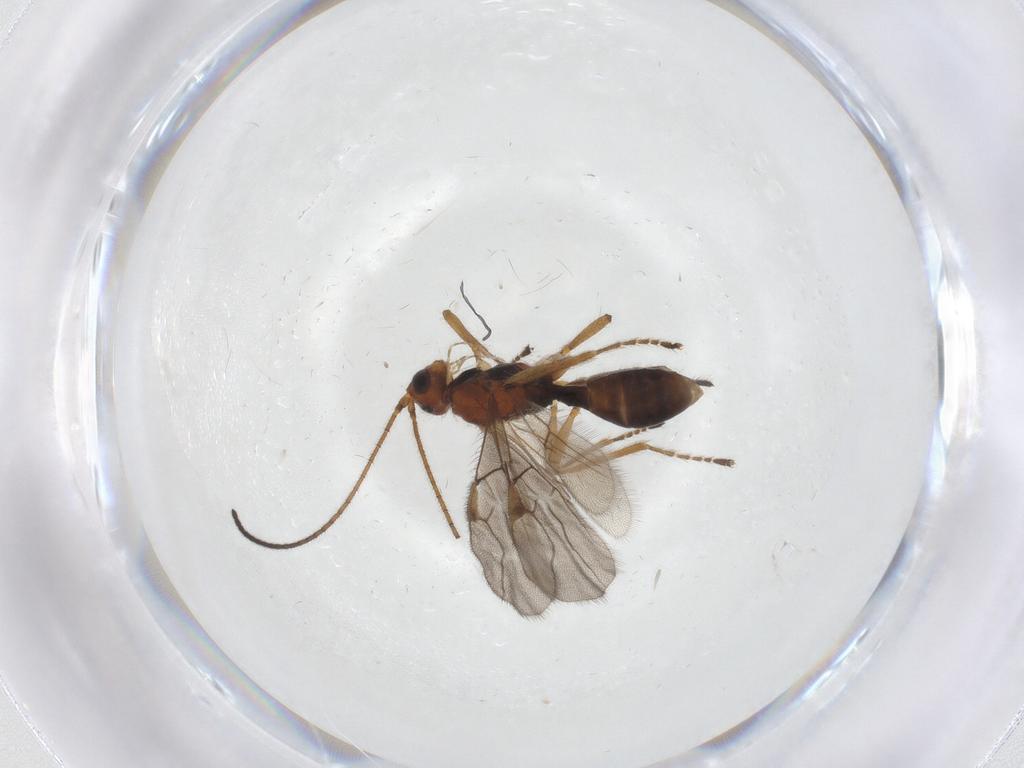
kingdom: Animalia
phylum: Arthropoda
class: Insecta
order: Hymenoptera
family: Braconidae
